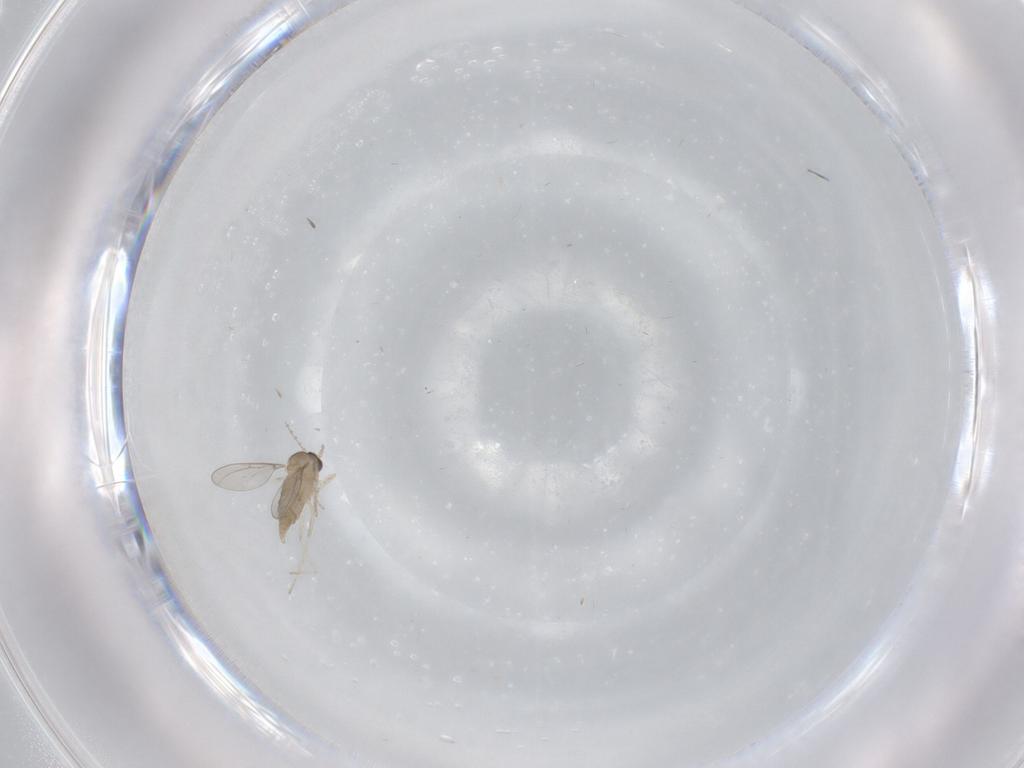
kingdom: Animalia
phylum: Arthropoda
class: Insecta
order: Diptera
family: Cecidomyiidae
